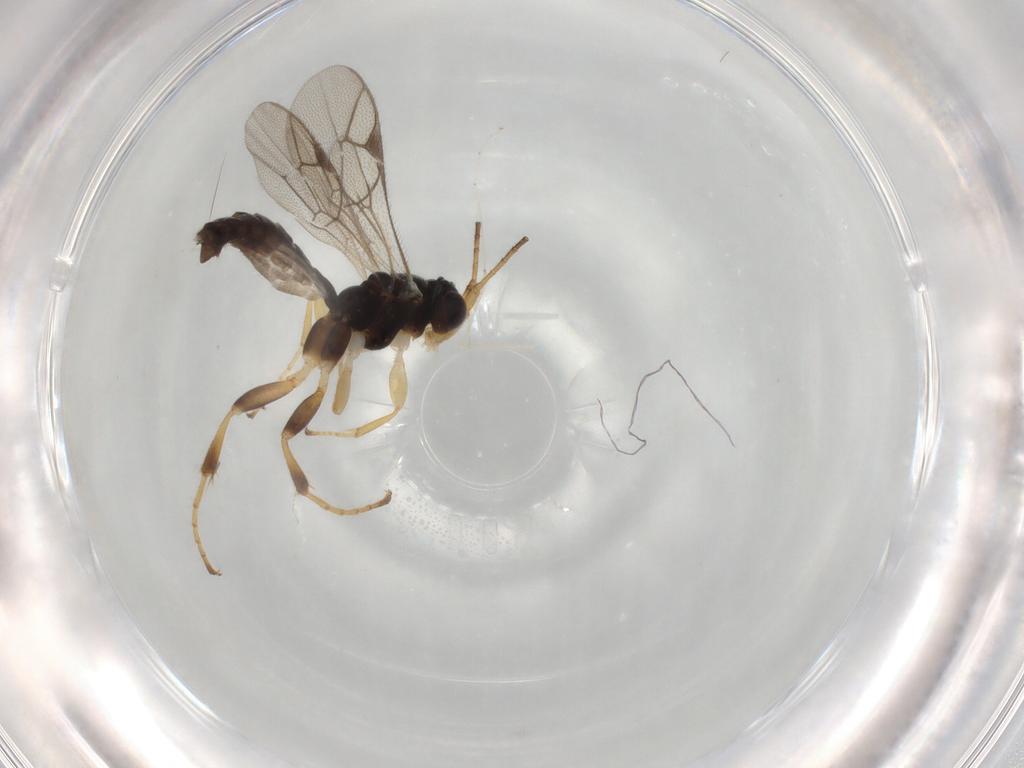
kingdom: Animalia
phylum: Arthropoda
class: Insecta
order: Hymenoptera
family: Ichneumonidae
